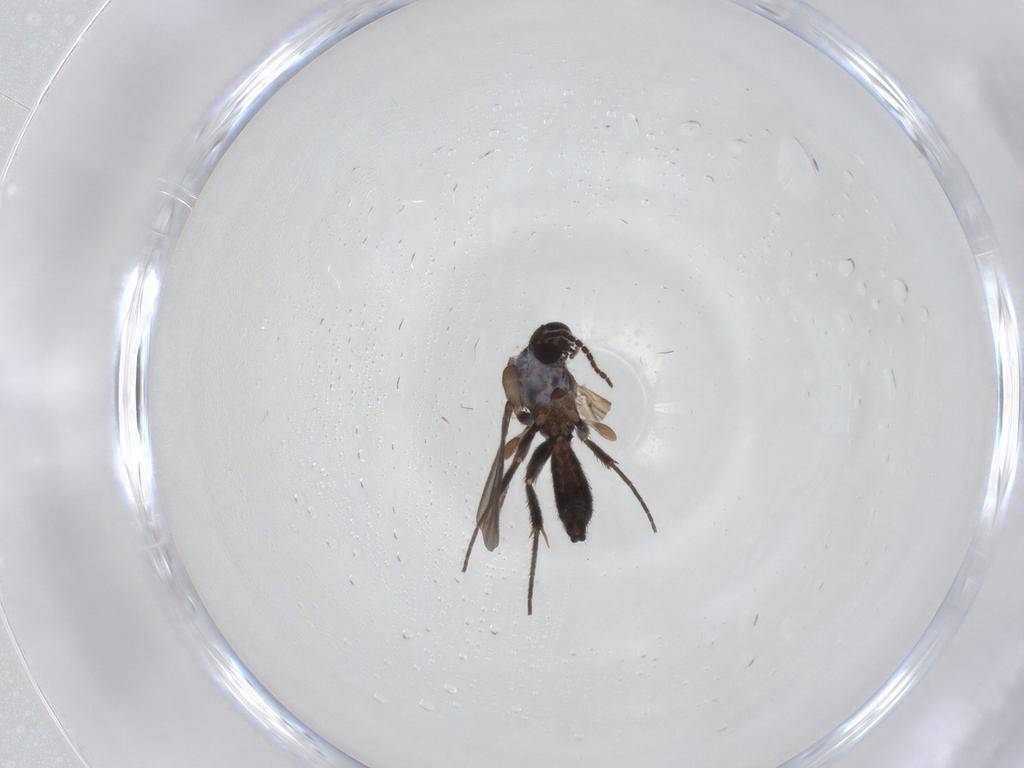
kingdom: Animalia
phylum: Arthropoda
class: Insecta
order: Diptera
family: Mycetophilidae
